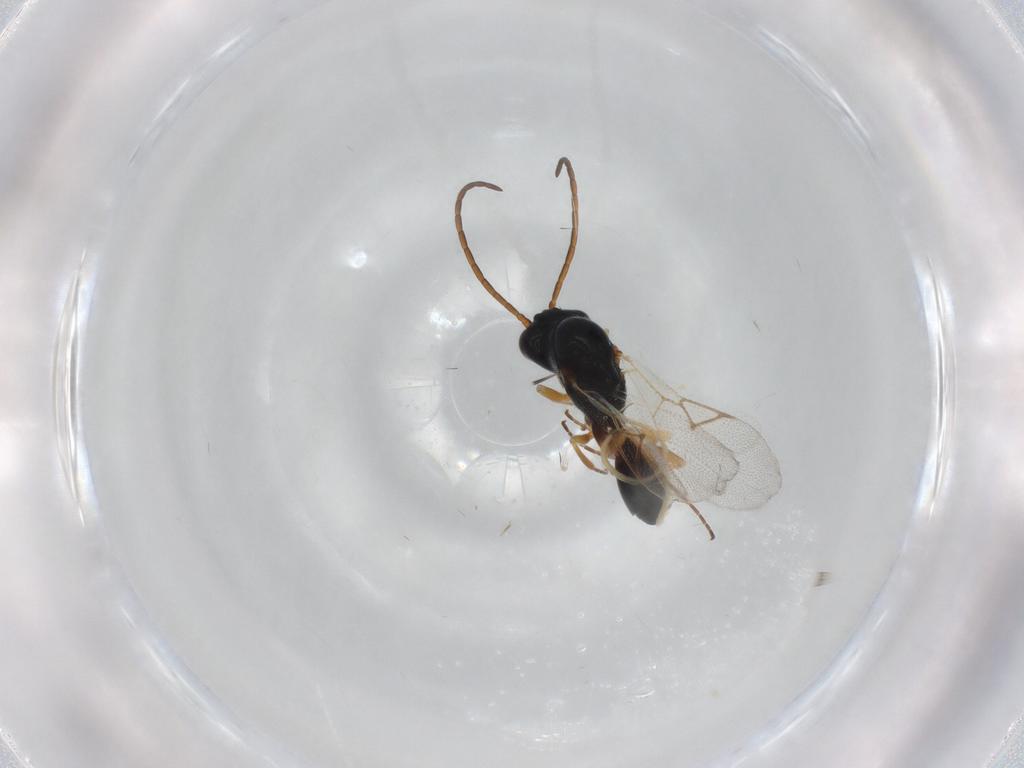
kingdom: Animalia
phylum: Arthropoda
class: Insecta
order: Hymenoptera
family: Figitidae
